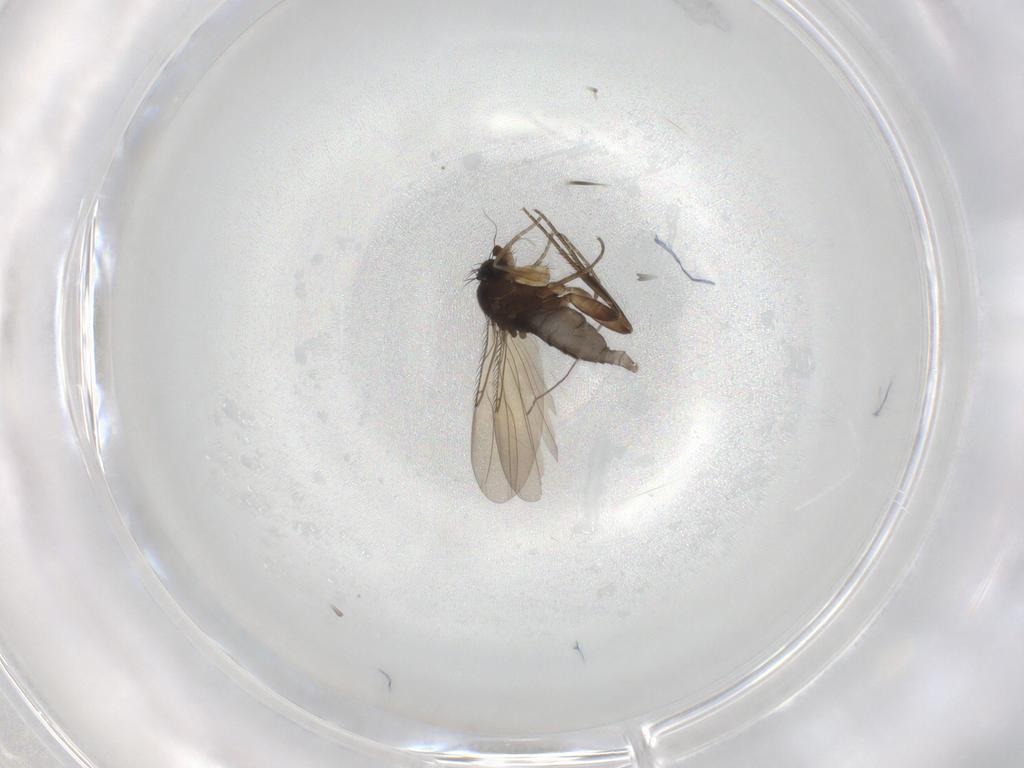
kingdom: Animalia
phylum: Arthropoda
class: Insecta
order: Diptera
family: Phoridae
